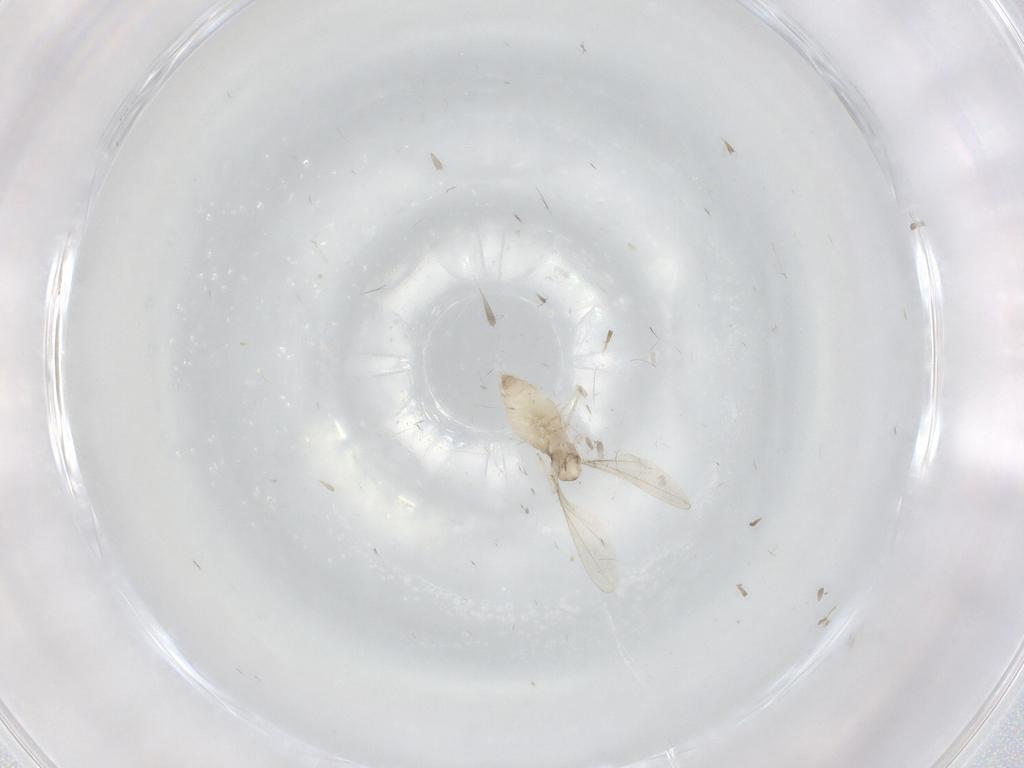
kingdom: Animalia
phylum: Arthropoda
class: Insecta
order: Diptera
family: Cecidomyiidae
